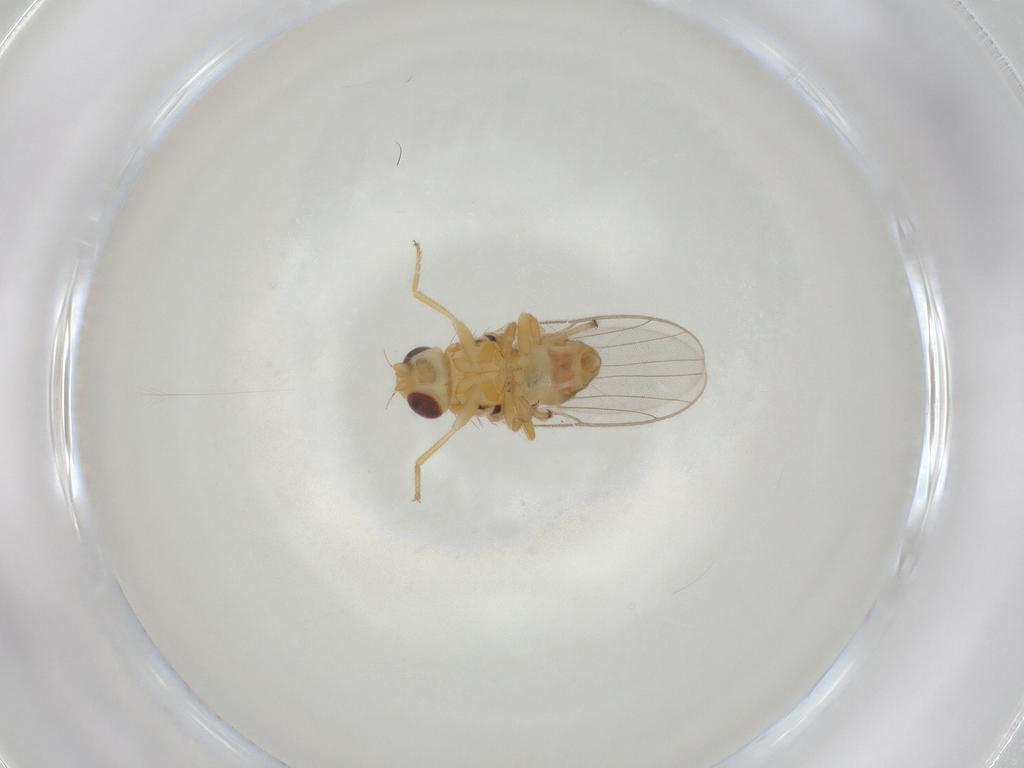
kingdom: Animalia
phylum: Arthropoda
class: Insecta
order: Diptera
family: Chloropidae
